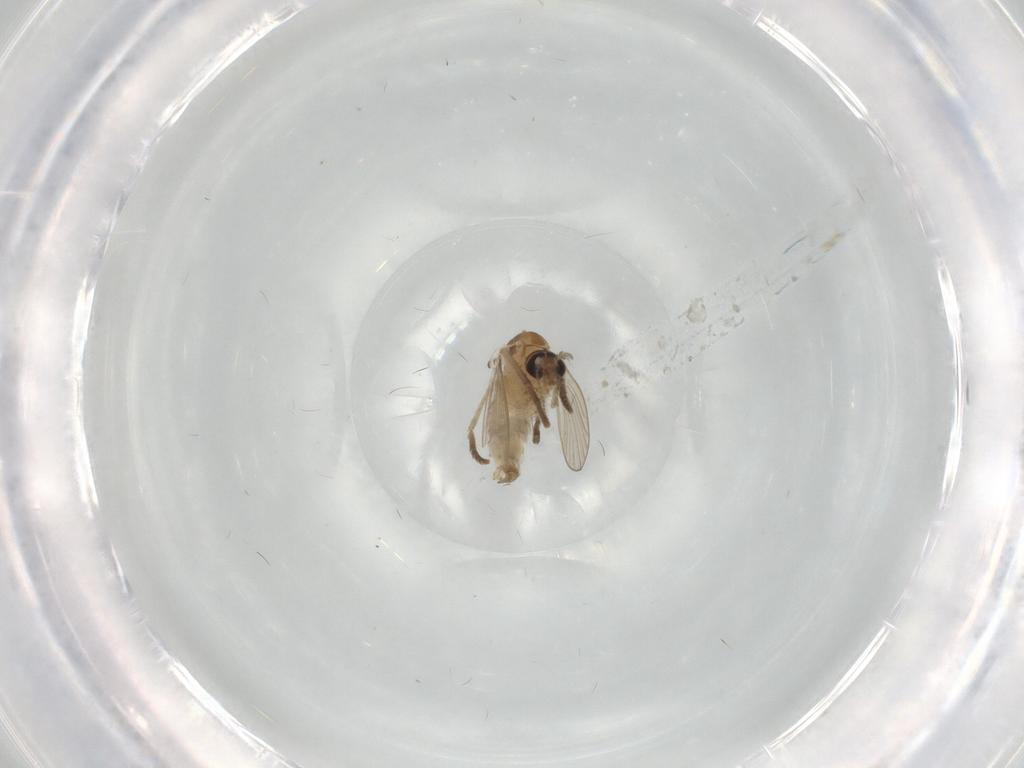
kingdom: Animalia
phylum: Arthropoda
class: Insecta
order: Diptera
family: Psychodidae
